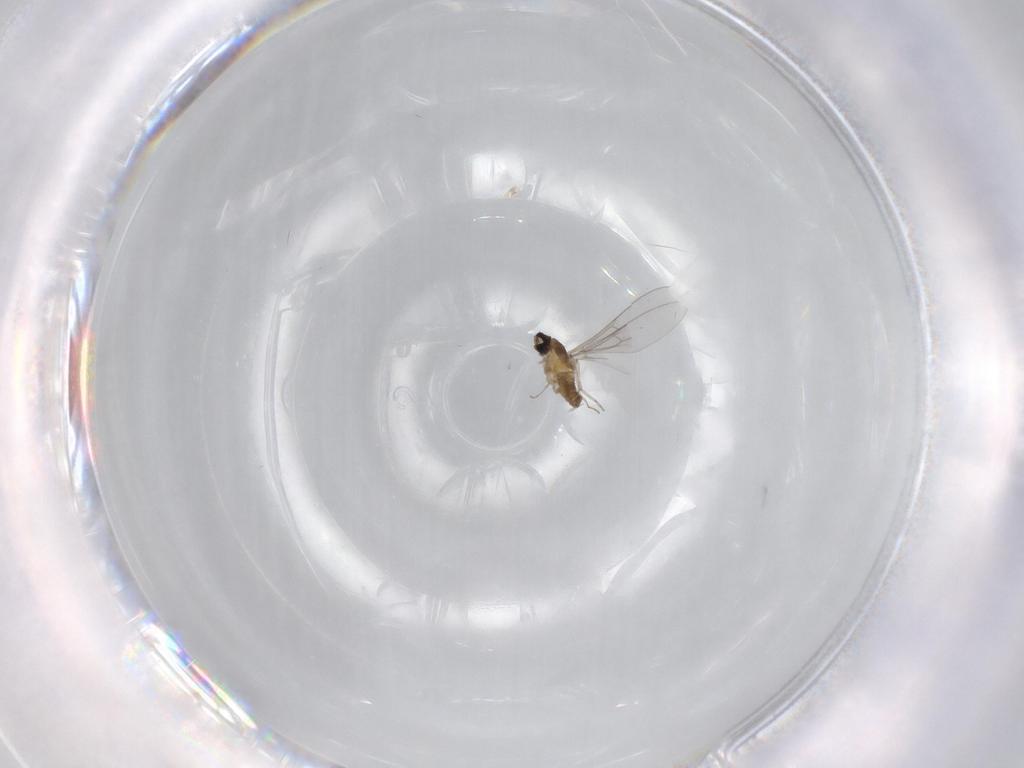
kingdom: Animalia
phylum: Arthropoda
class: Insecta
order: Diptera
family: Cecidomyiidae
